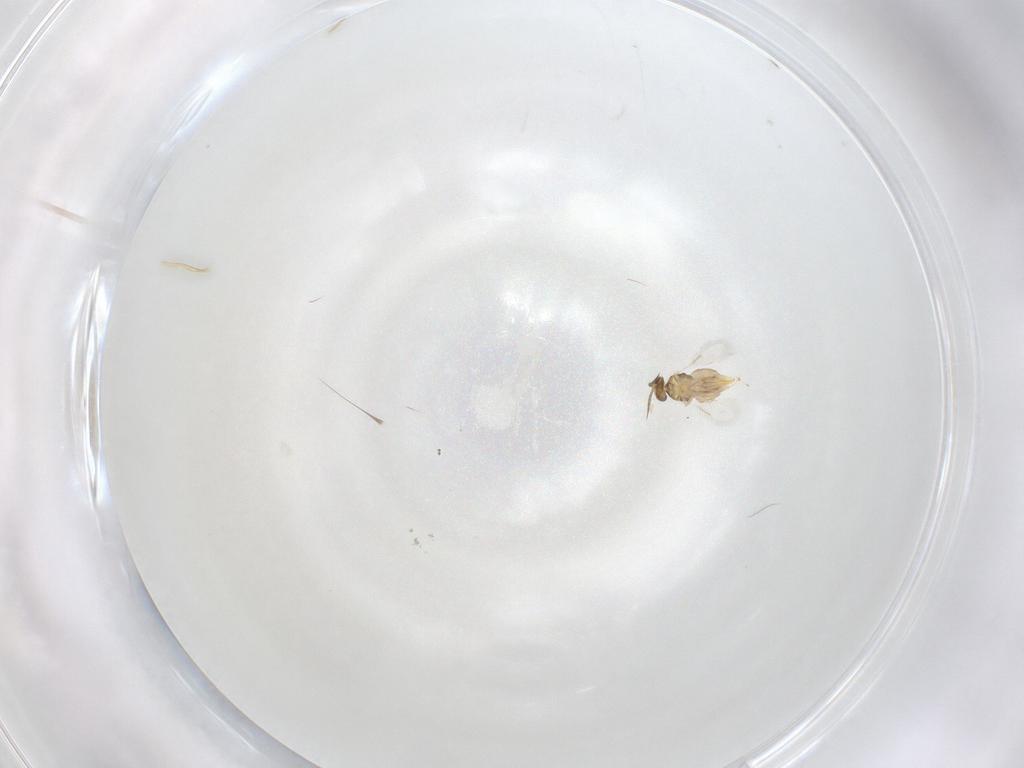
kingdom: Animalia
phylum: Arthropoda
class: Insecta
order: Hymenoptera
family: Aphelinidae
